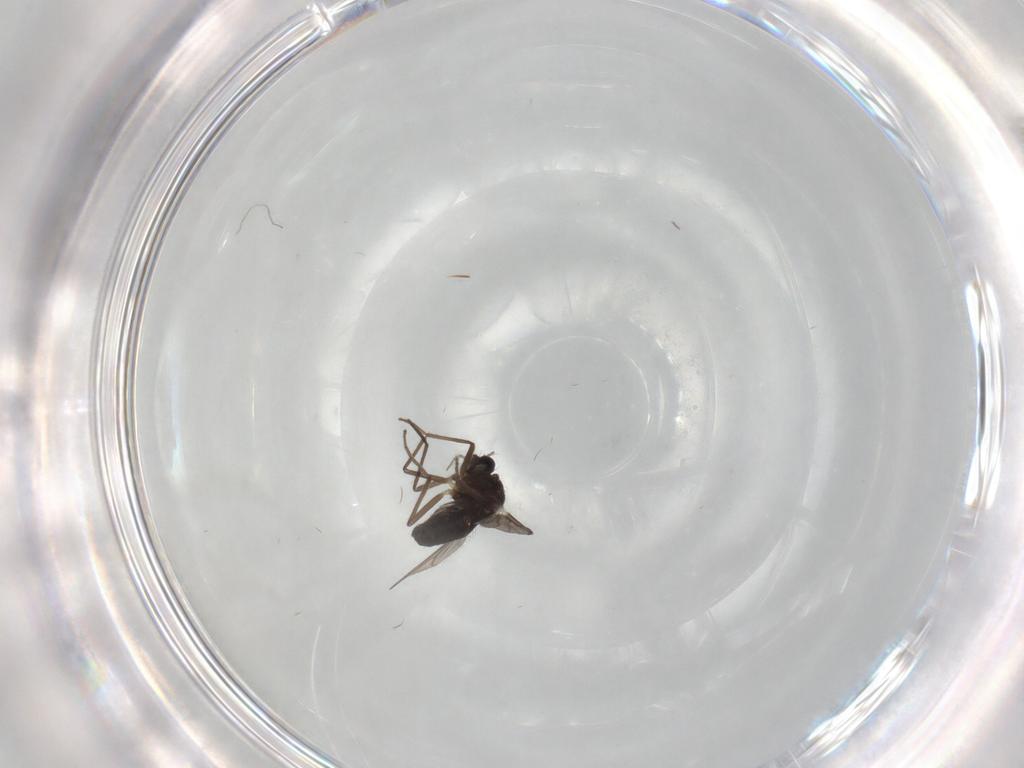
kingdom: Animalia
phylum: Arthropoda
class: Insecta
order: Diptera
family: Chironomidae
